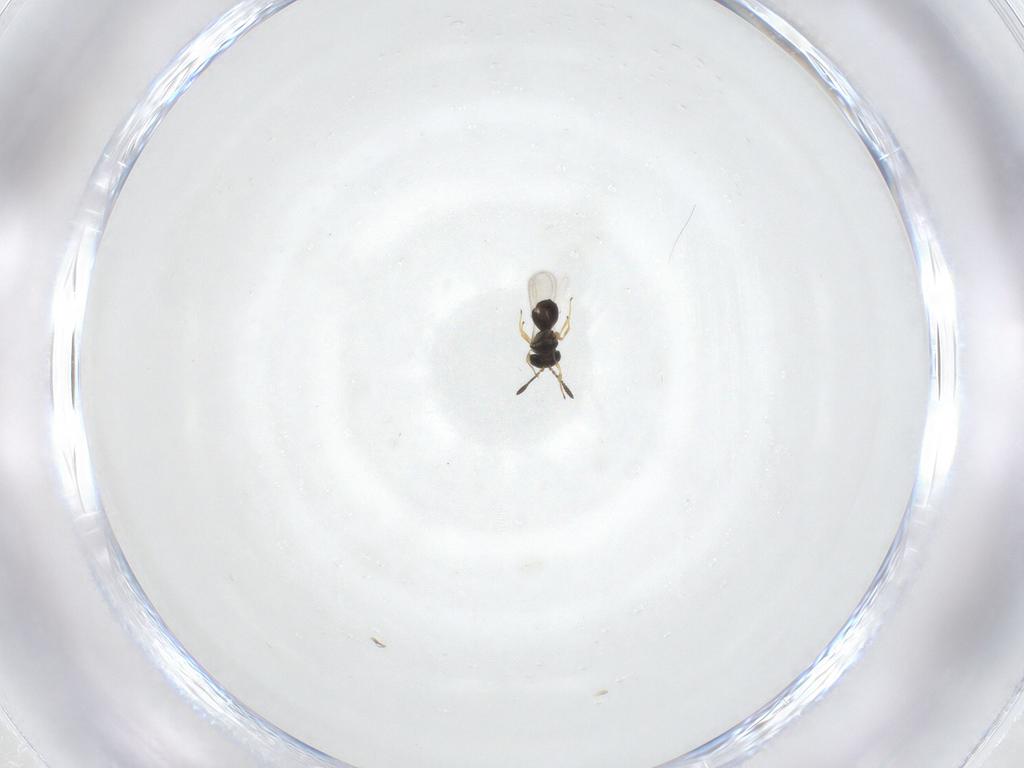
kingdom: Animalia
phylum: Arthropoda
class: Insecta
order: Hymenoptera
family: Scelionidae
